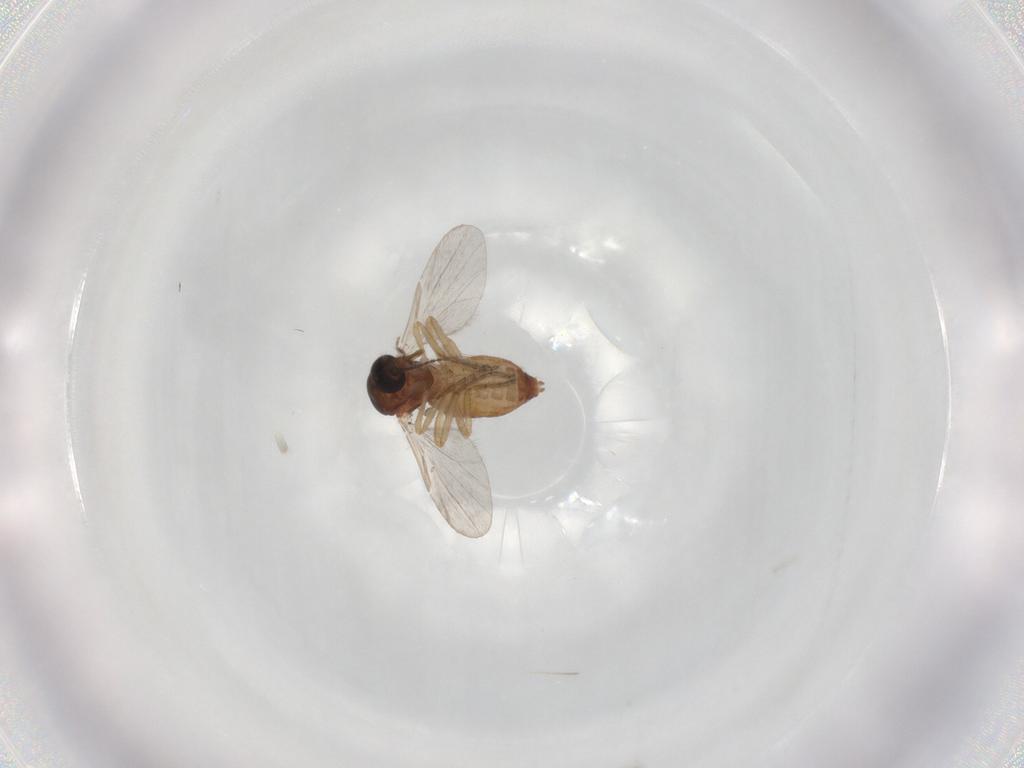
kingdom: Animalia
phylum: Arthropoda
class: Insecta
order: Diptera
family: Ceratopogonidae
